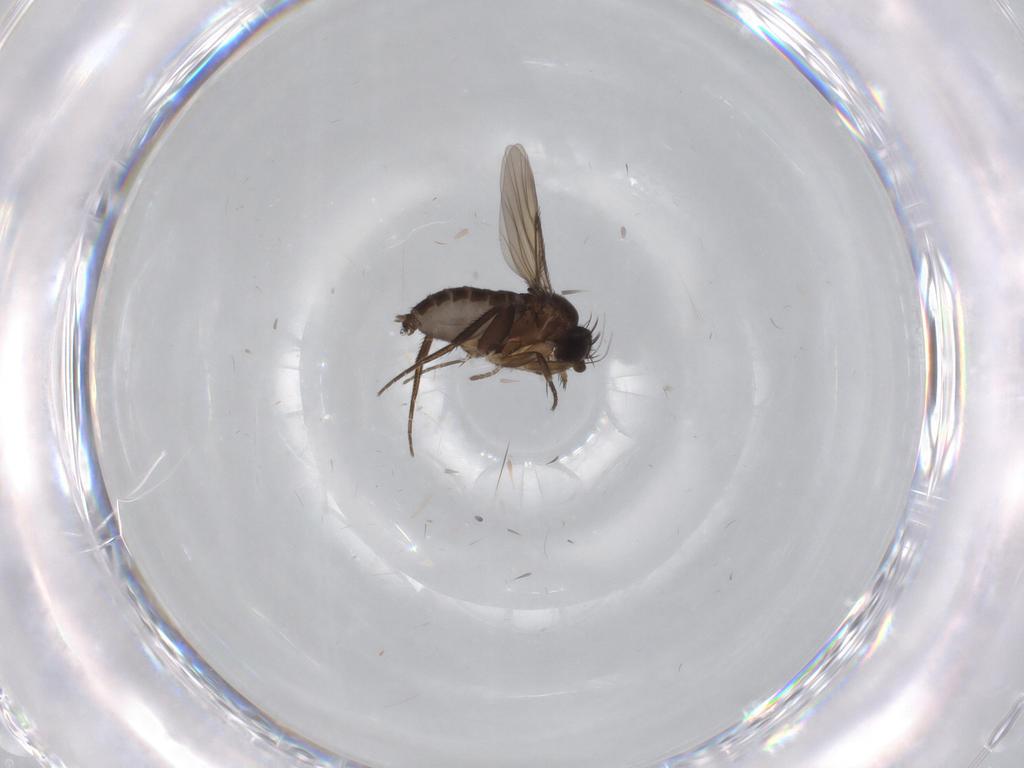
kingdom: Animalia
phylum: Arthropoda
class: Insecta
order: Diptera
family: Phoridae
